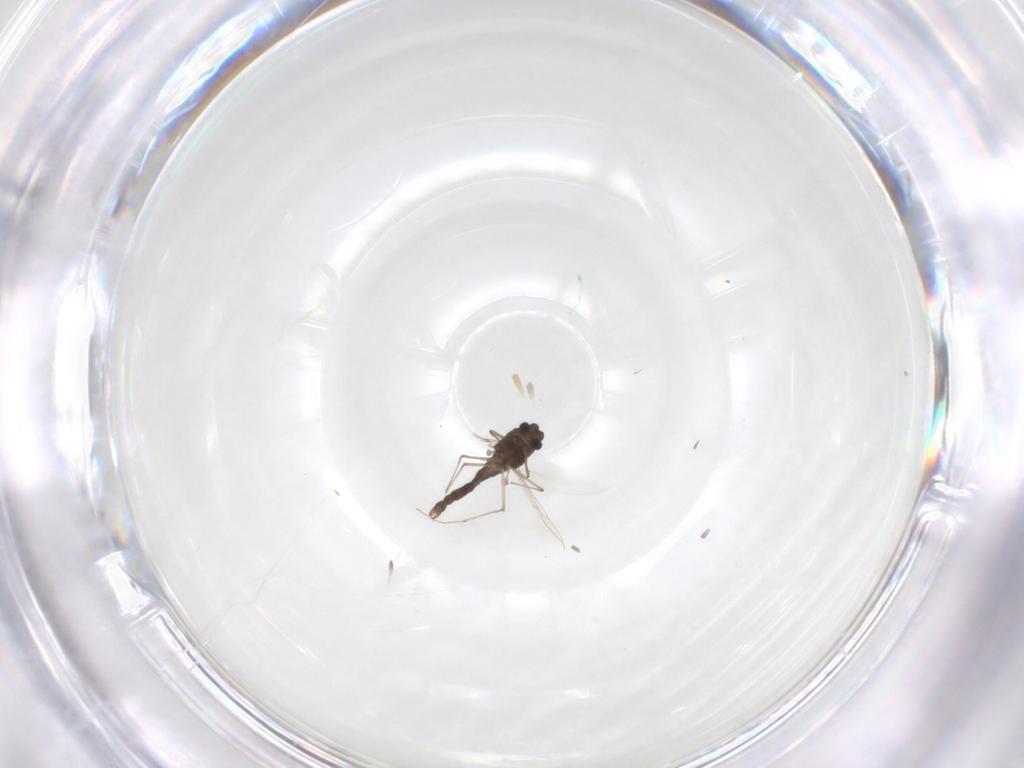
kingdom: Animalia
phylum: Arthropoda
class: Insecta
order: Diptera
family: Chironomidae
